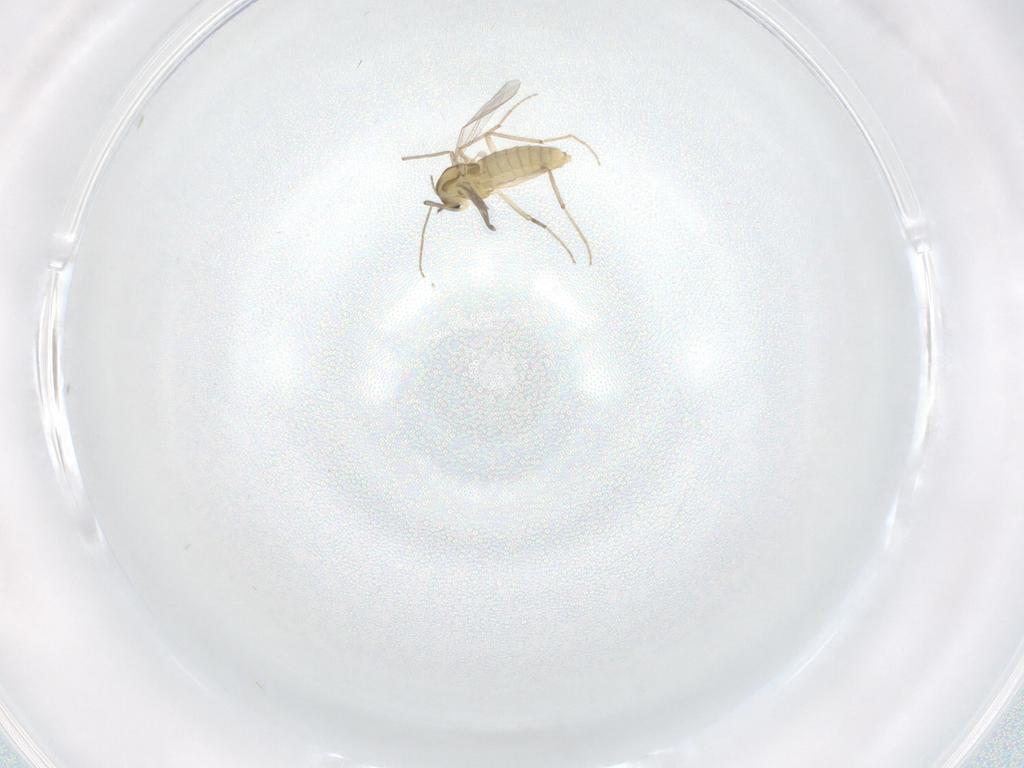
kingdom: Animalia
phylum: Arthropoda
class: Insecta
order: Diptera
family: Chironomidae
